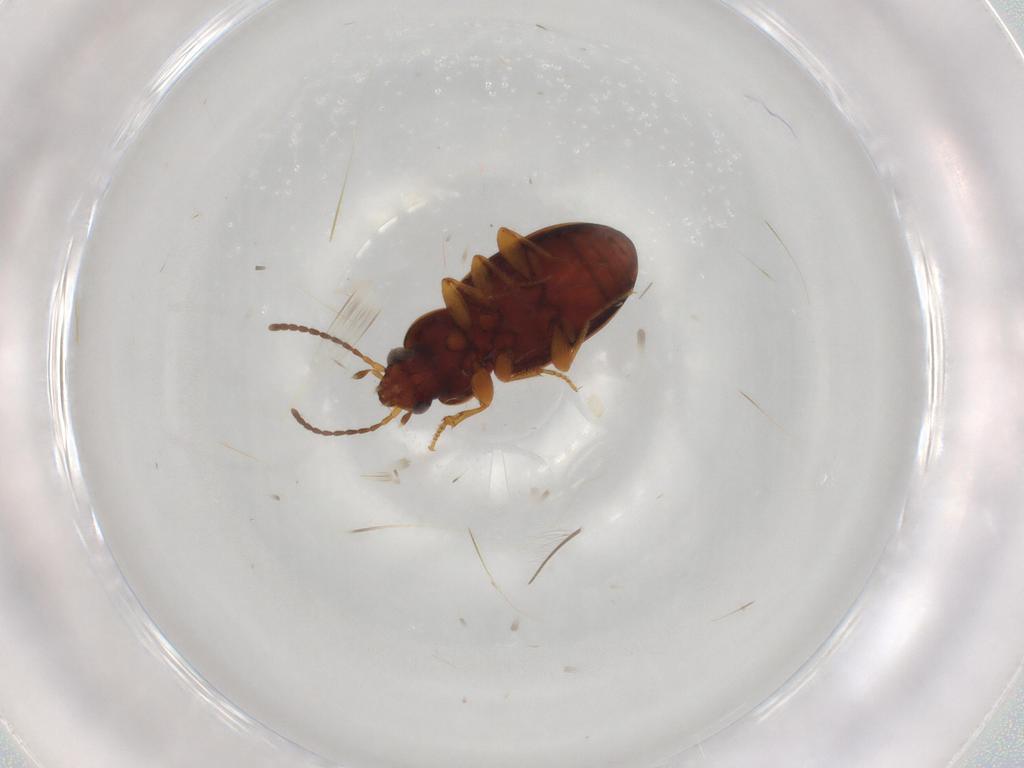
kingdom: Animalia
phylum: Arthropoda
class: Insecta
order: Coleoptera
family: Carabidae
